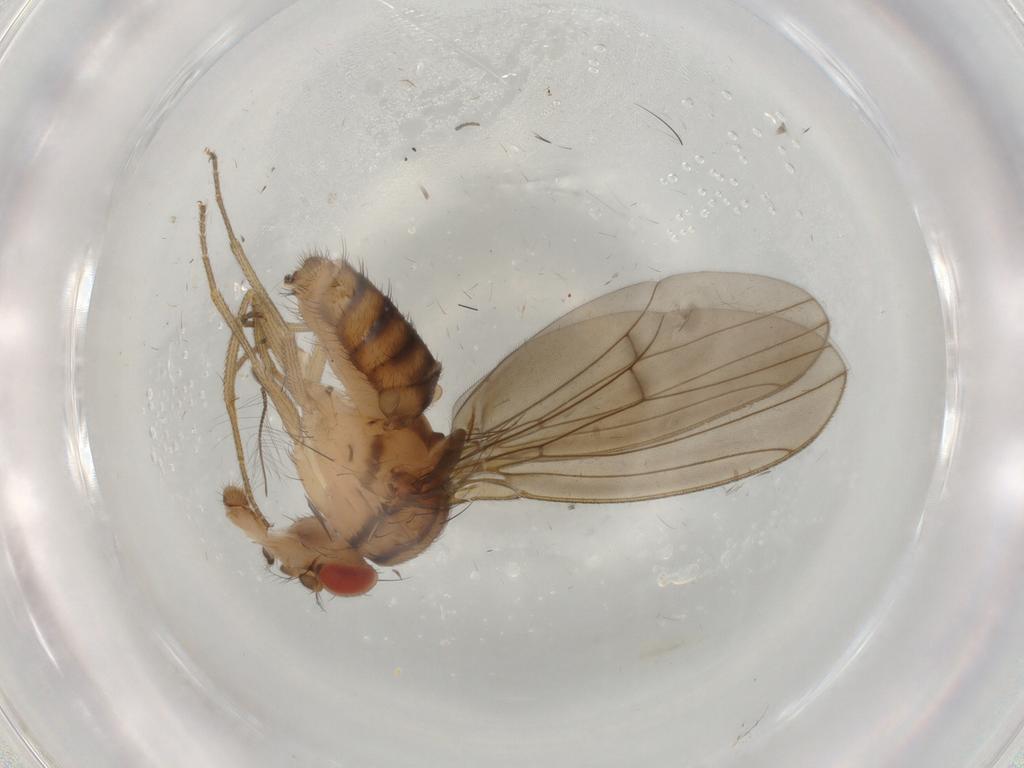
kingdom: Animalia
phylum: Arthropoda
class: Insecta
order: Diptera
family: Drosophilidae
